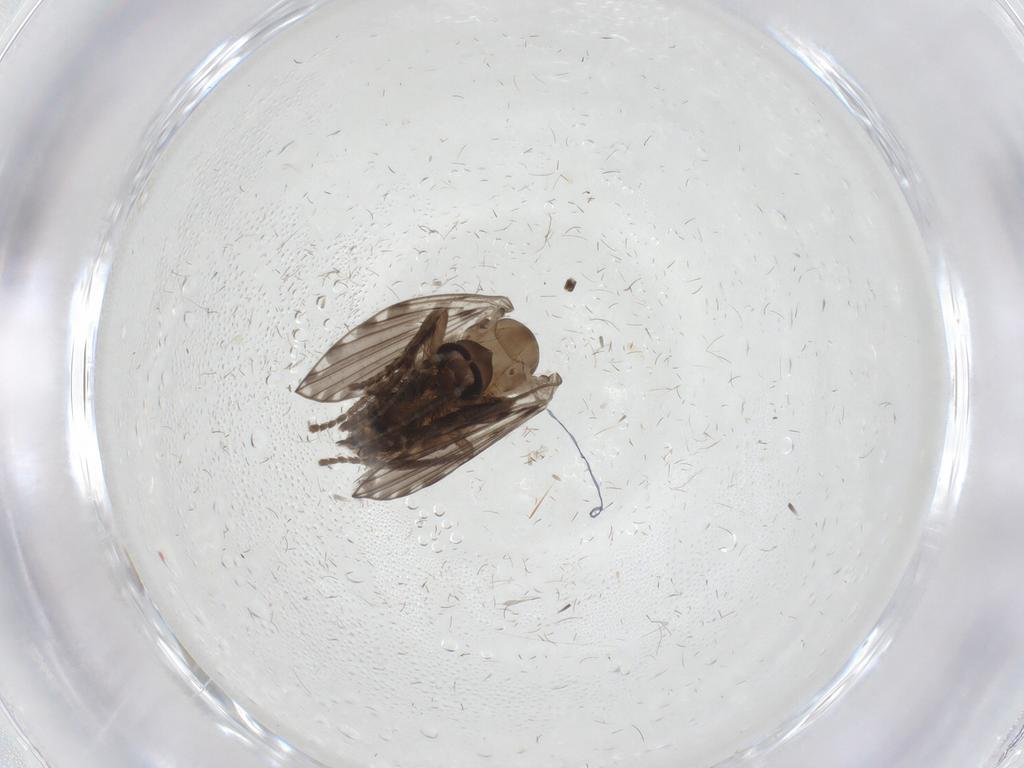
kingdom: Animalia
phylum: Arthropoda
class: Insecta
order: Diptera
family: Psychodidae
